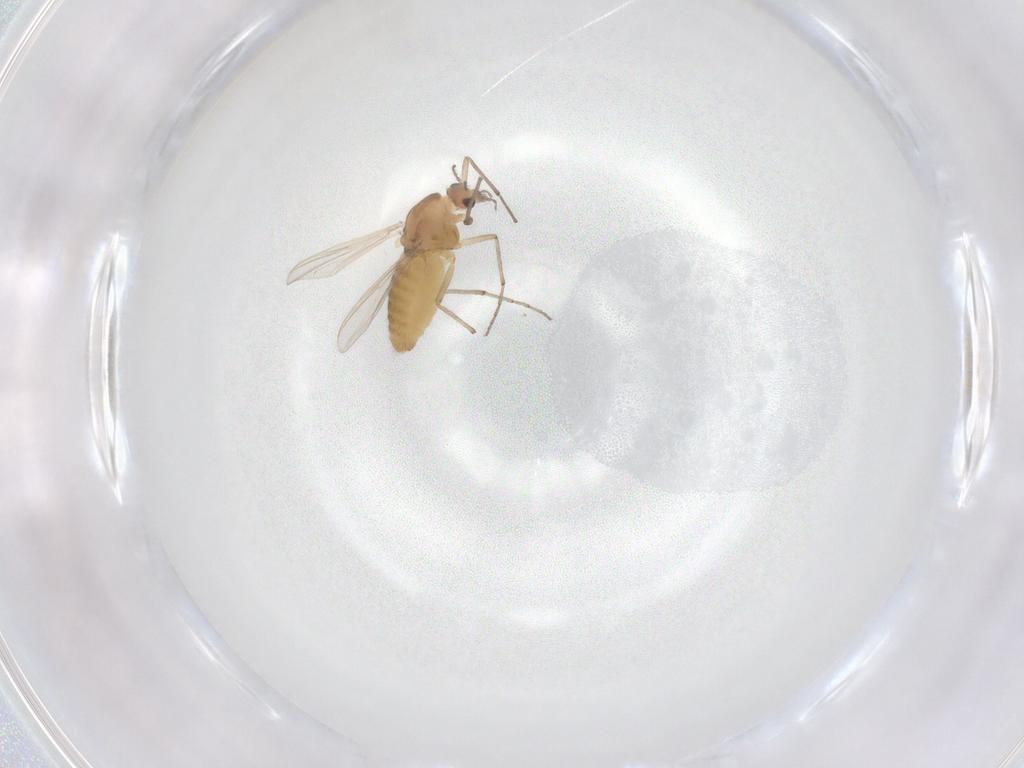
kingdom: Animalia
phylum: Arthropoda
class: Insecta
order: Diptera
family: Chironomidae
